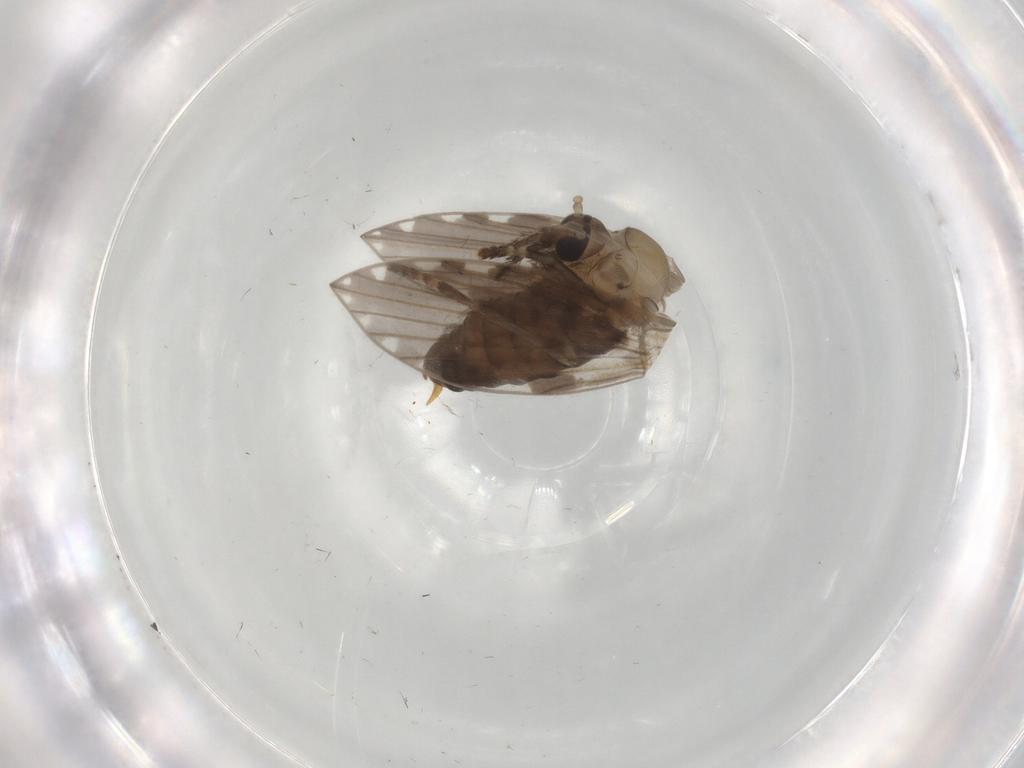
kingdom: Animalia
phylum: Arthropoda
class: Insecta
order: Diptera
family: Psychodidae
